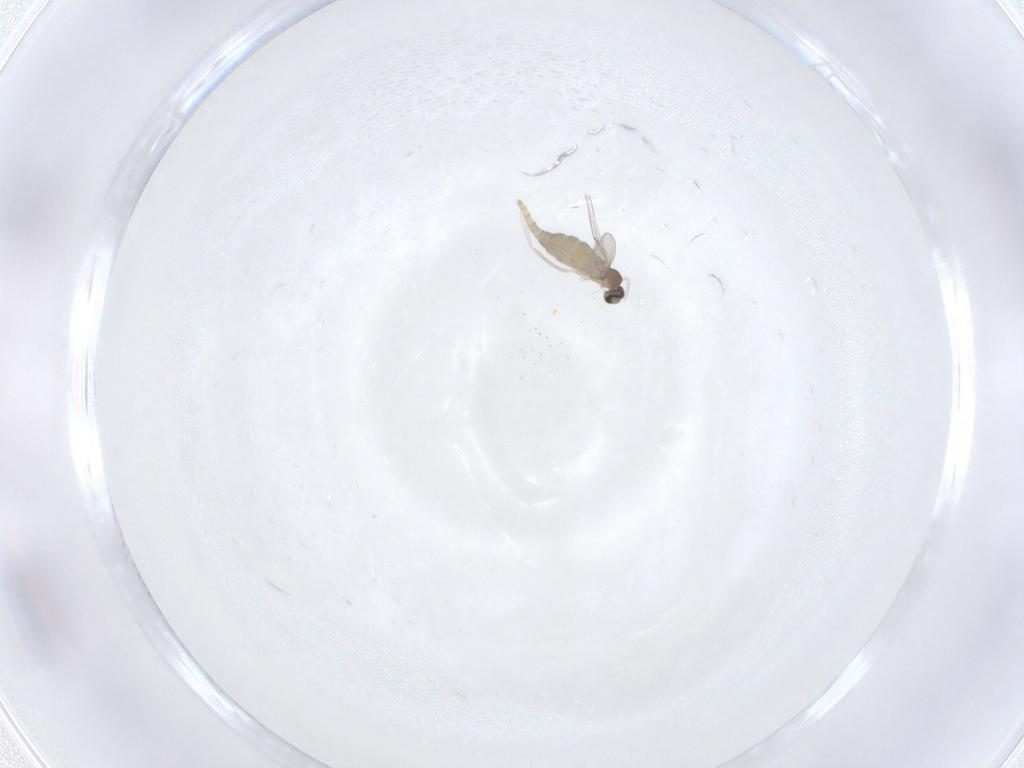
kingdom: Animalia
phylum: Arthropoda
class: Insecta
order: Diptera
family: Cecidomyiidae
